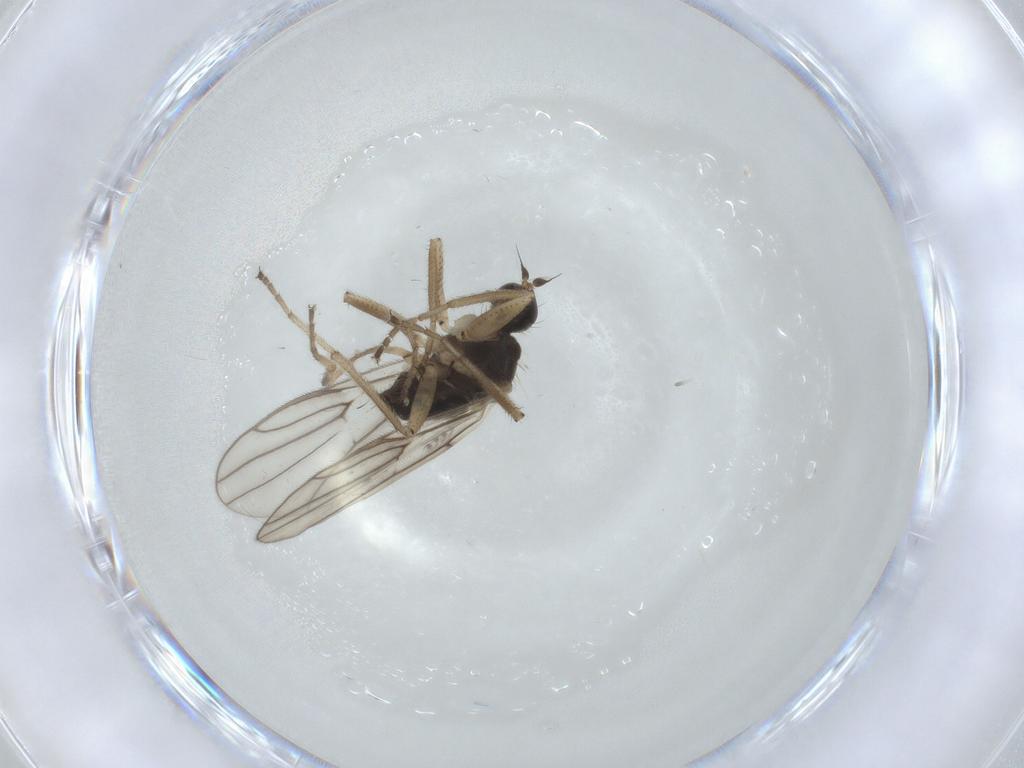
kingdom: Animalia
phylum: Arthropoda
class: Insecta
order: Diptera
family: Hybotidae
